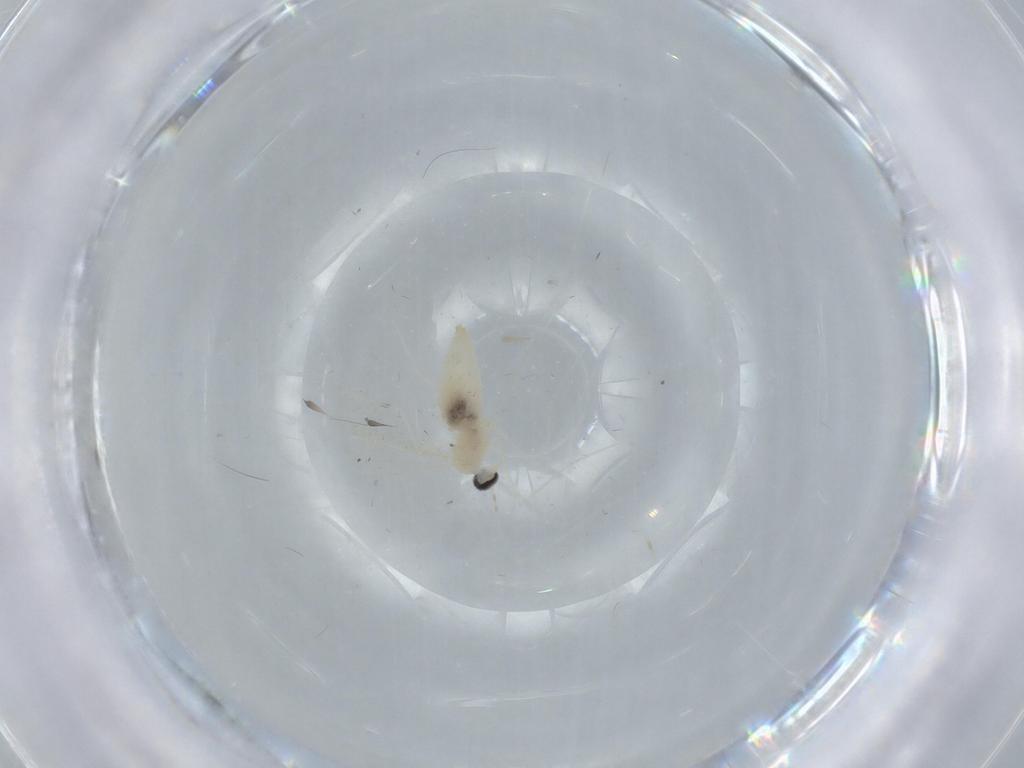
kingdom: Animalia
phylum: Arthropoda
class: Insecta
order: Diptera
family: Cecidomyiidae
